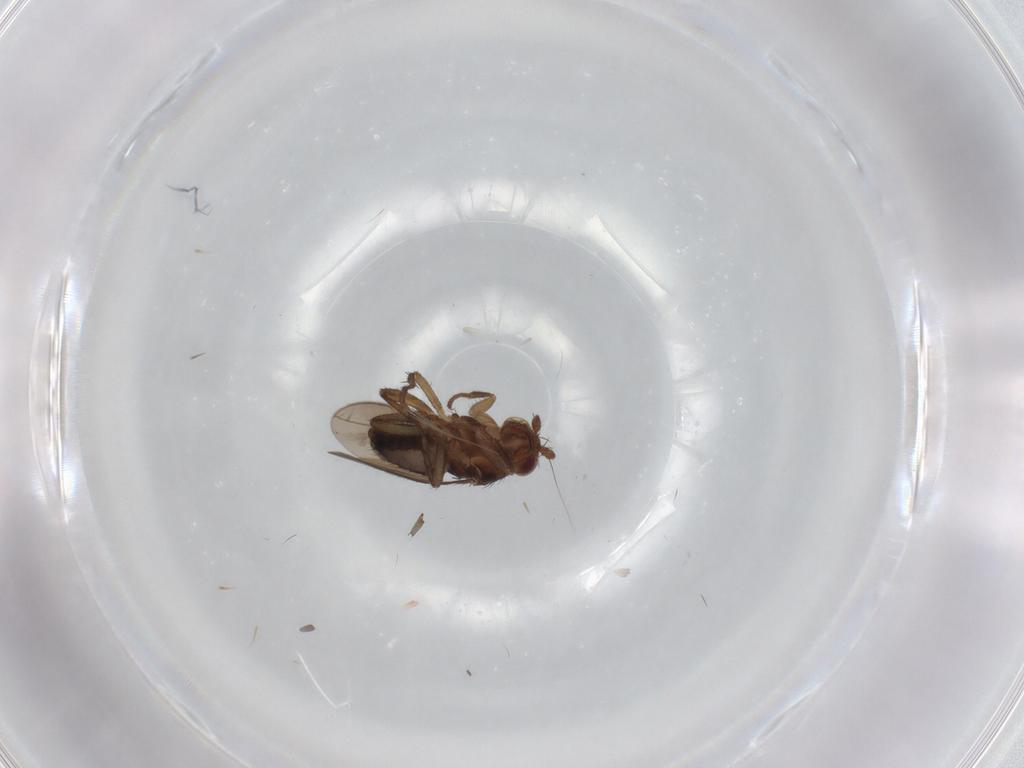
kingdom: Animalia
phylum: Arthropoda
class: Insecta
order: Diptera
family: Sphaeroceridae
